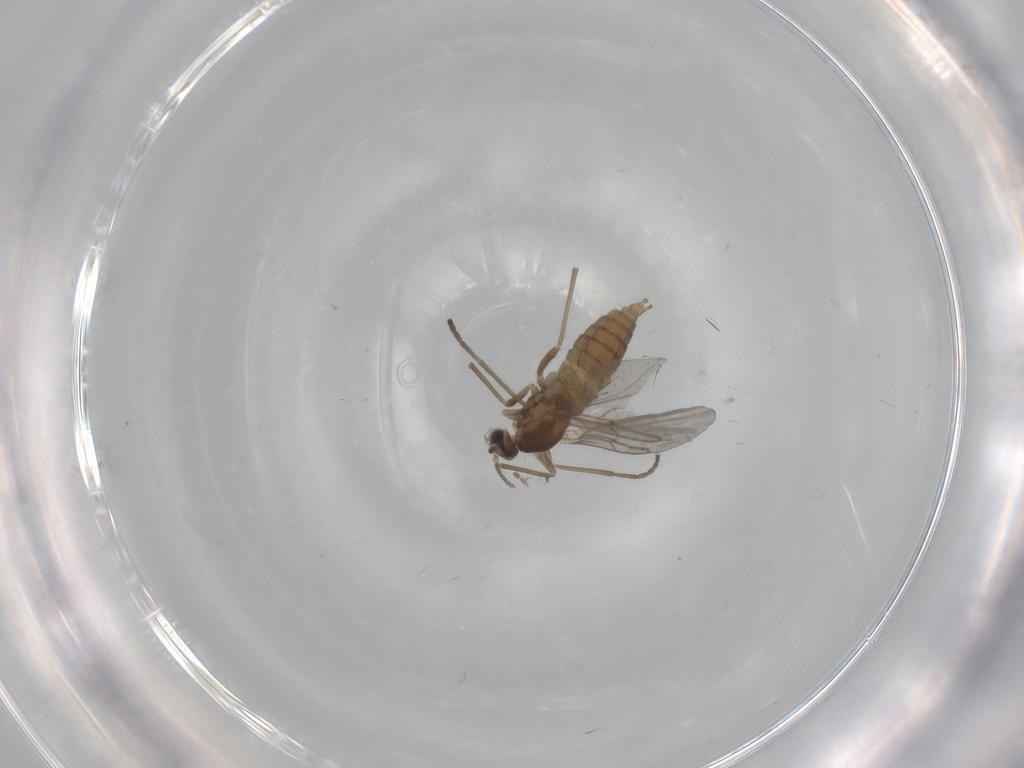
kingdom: Animalia
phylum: Arthropoda
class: Insecta
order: Diptera
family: Cecidomyiidae
